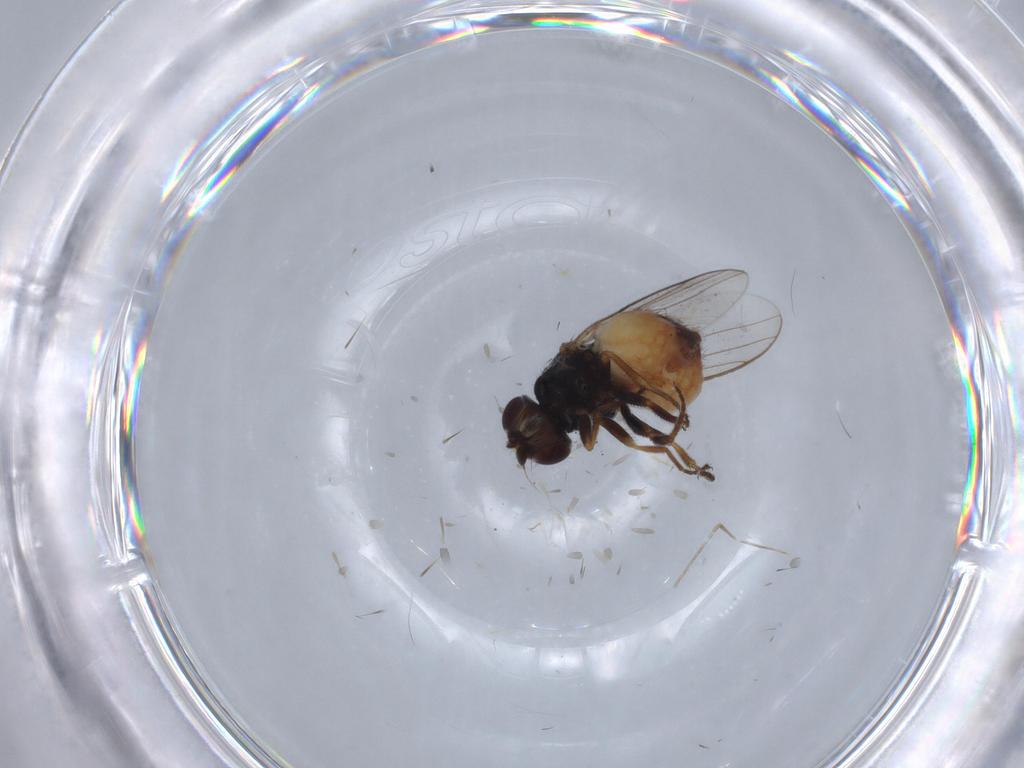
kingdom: Animalia
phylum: Arthropoda
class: Insecta
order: Diptera
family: Chloropidae
